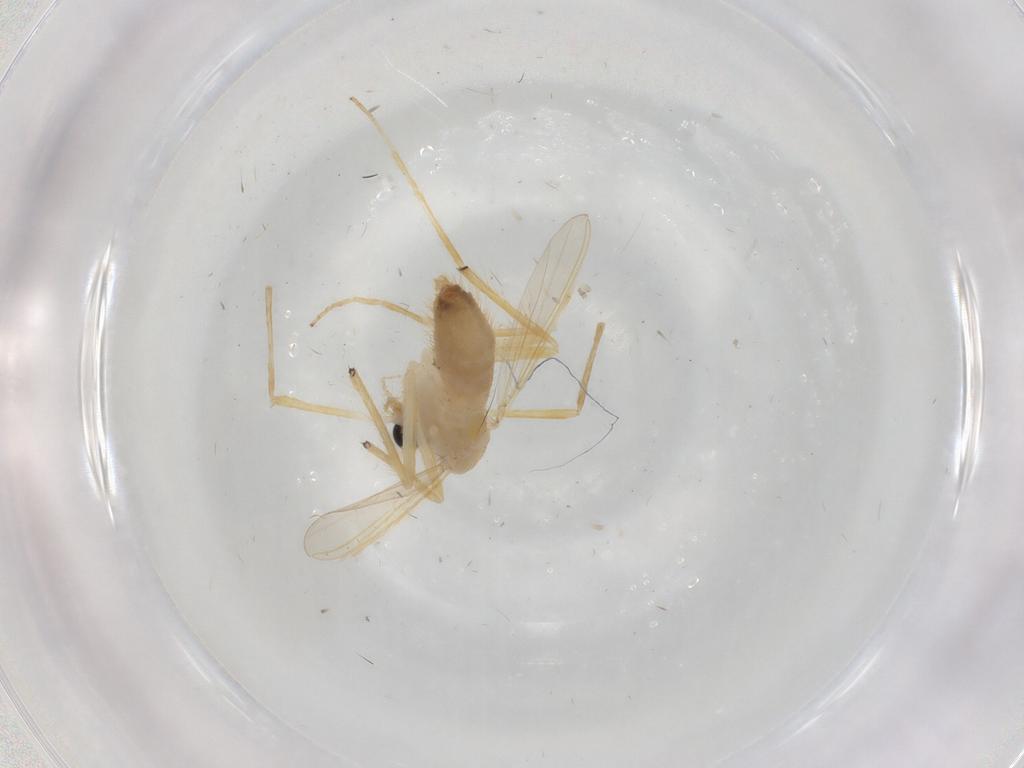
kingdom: Animalia
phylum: Arthropoda
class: Insecta
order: Diptera
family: Chironomidae
